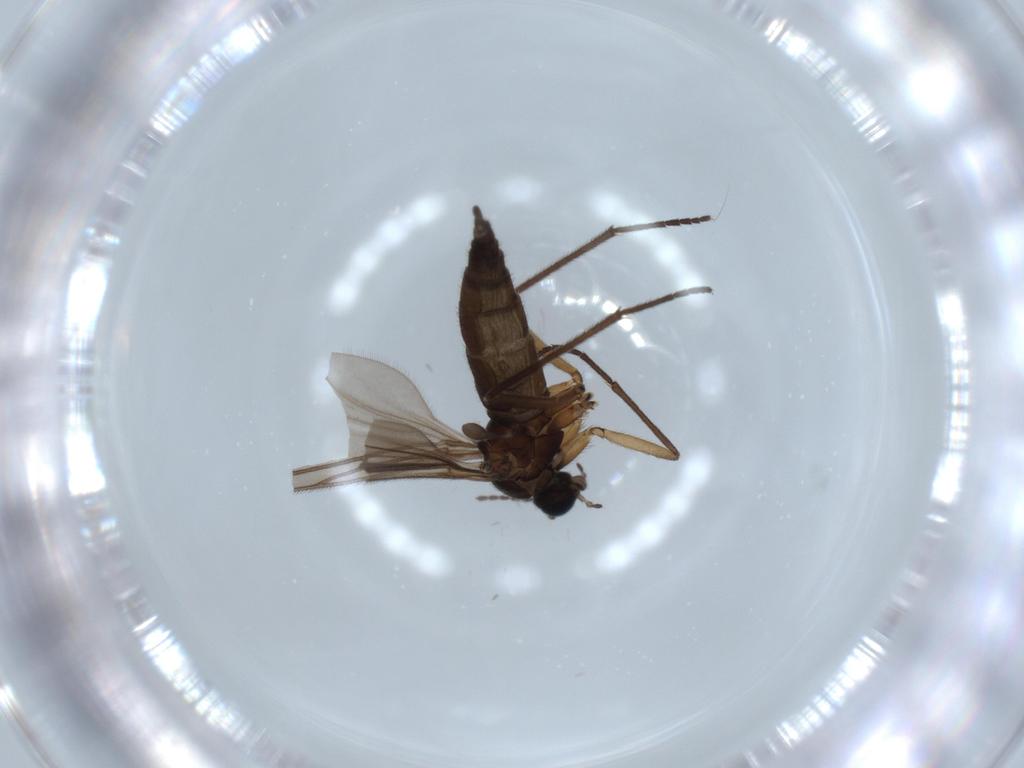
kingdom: Animalia
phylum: Arthropoda
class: Insecta
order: Diptera
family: Sciaridae
